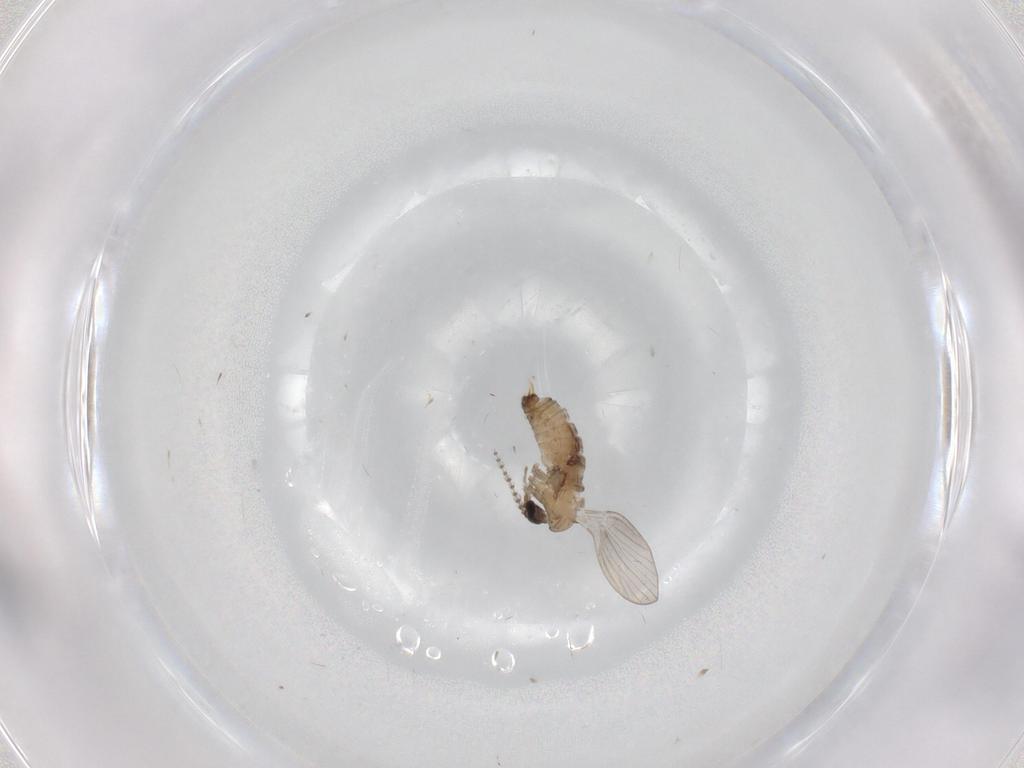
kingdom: Animalia
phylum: Arthropoda
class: Insecta
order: Diptera
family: Psychodidae
